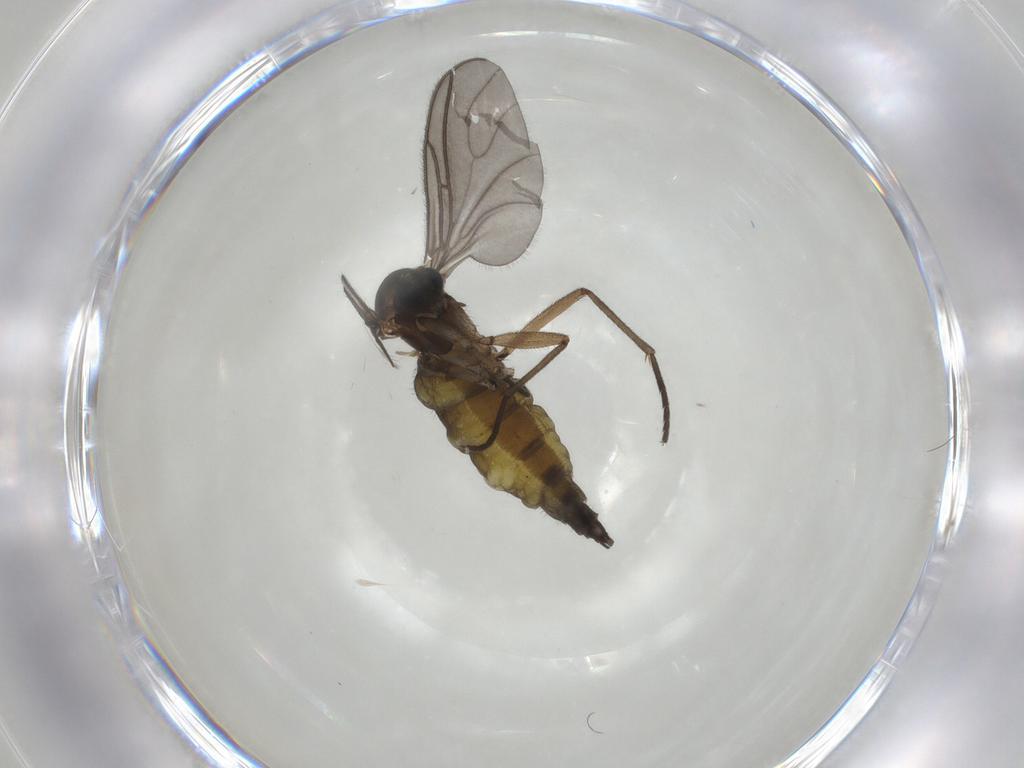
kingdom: Animalia
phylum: Arthropoda
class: Insecta
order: Diptera
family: Sciaridae
